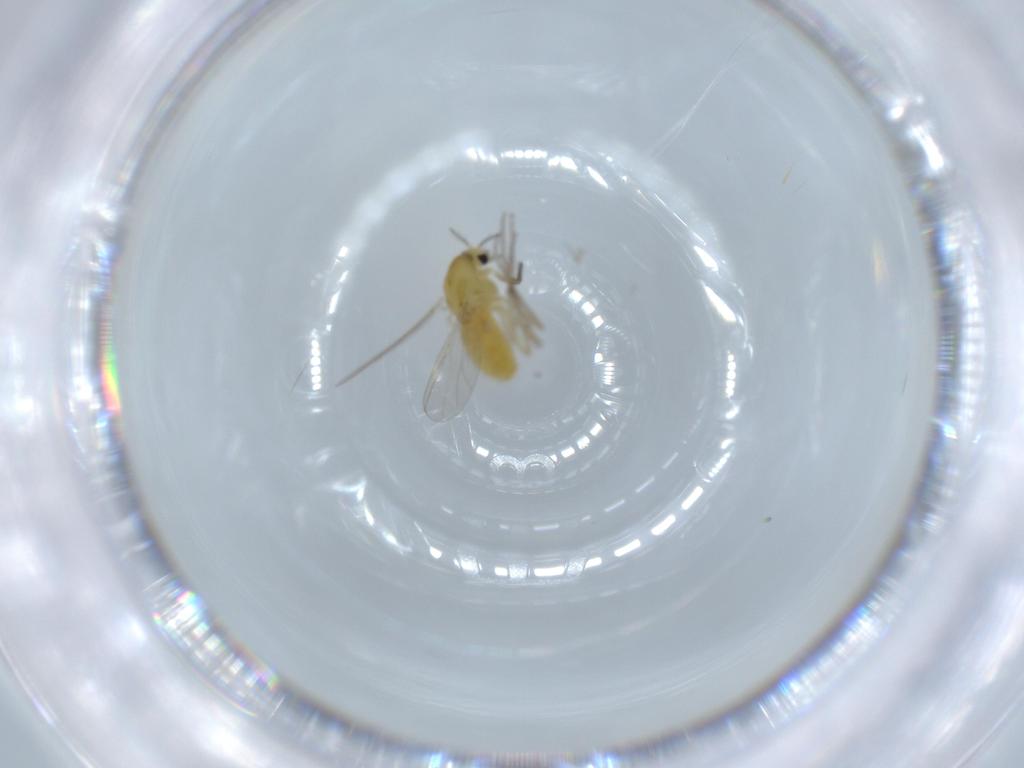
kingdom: Animalia
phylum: Arthropoda
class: Insecta
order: Diptera
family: Chironomidae
